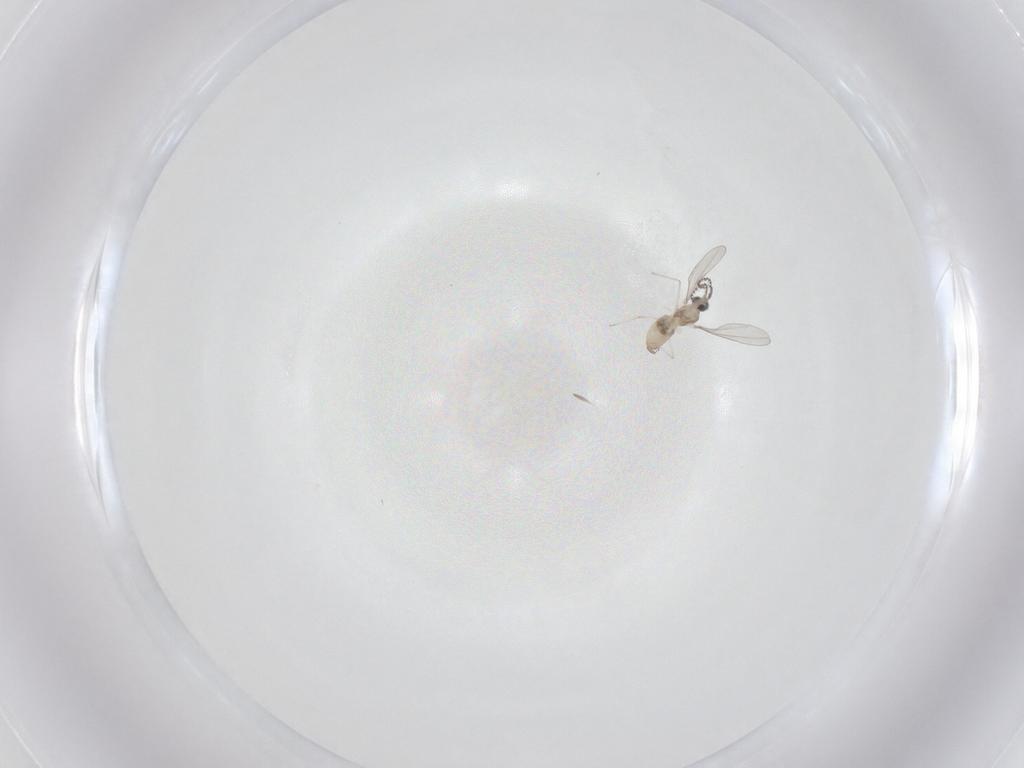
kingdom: Animalia
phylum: Arthropoda
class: Insecta
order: Diptera
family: Cecidomyiidae
